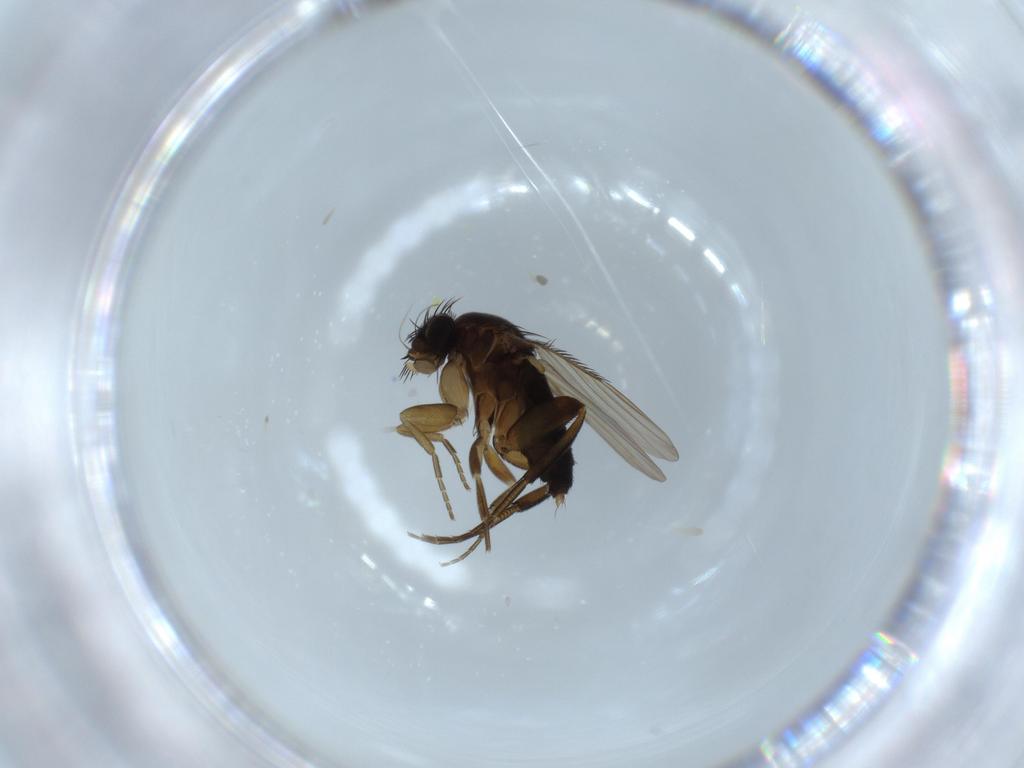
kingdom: Animalia
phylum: Arthropoda
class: Insecta
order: Diptera
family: Phoridae
